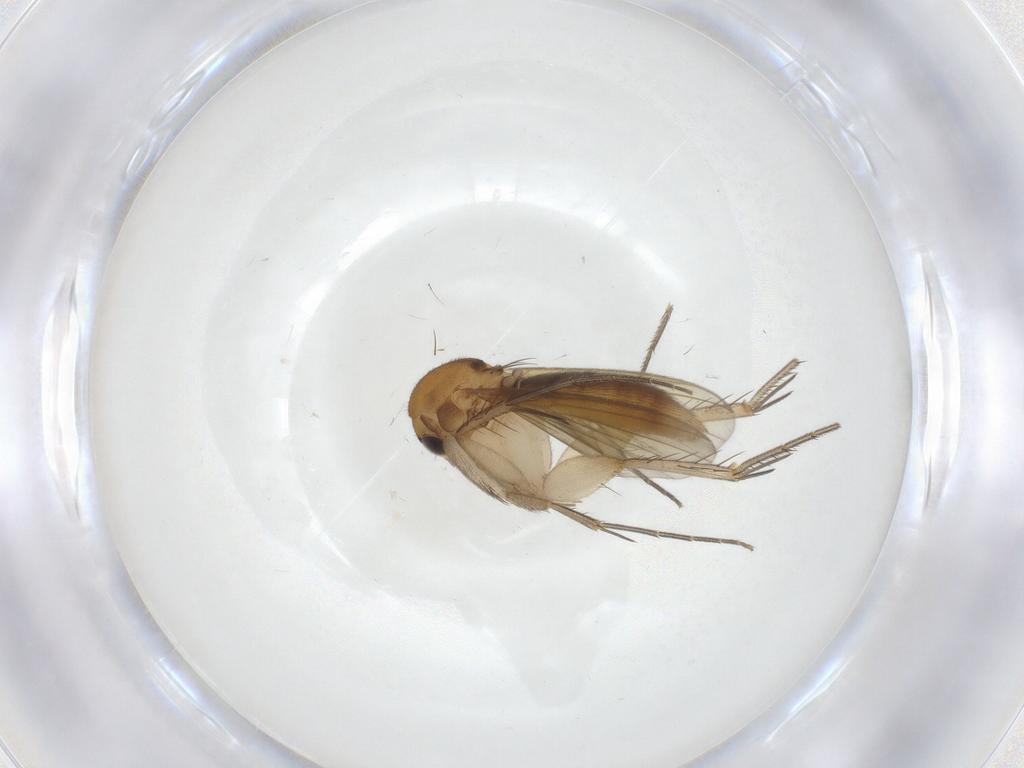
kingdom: Animalia
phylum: Arthropoda
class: Insecta
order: Diptera
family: Mycetophilidae
